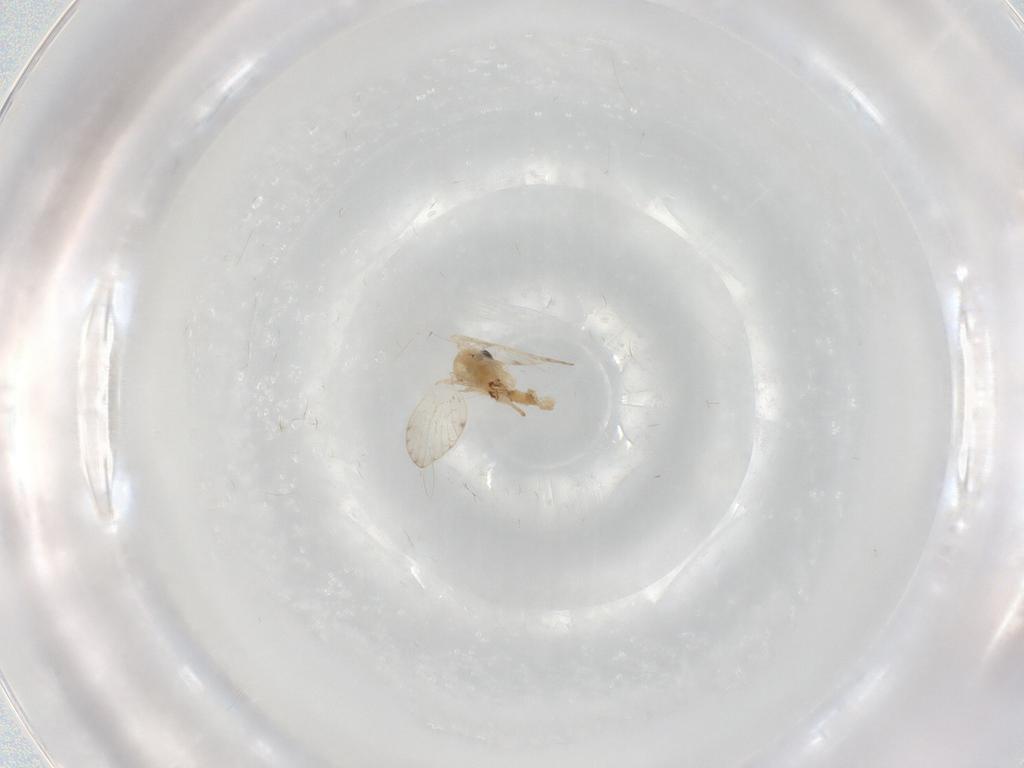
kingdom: Animalia
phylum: Arthropoda
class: Insecta
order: Diptera
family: Psychodidae
